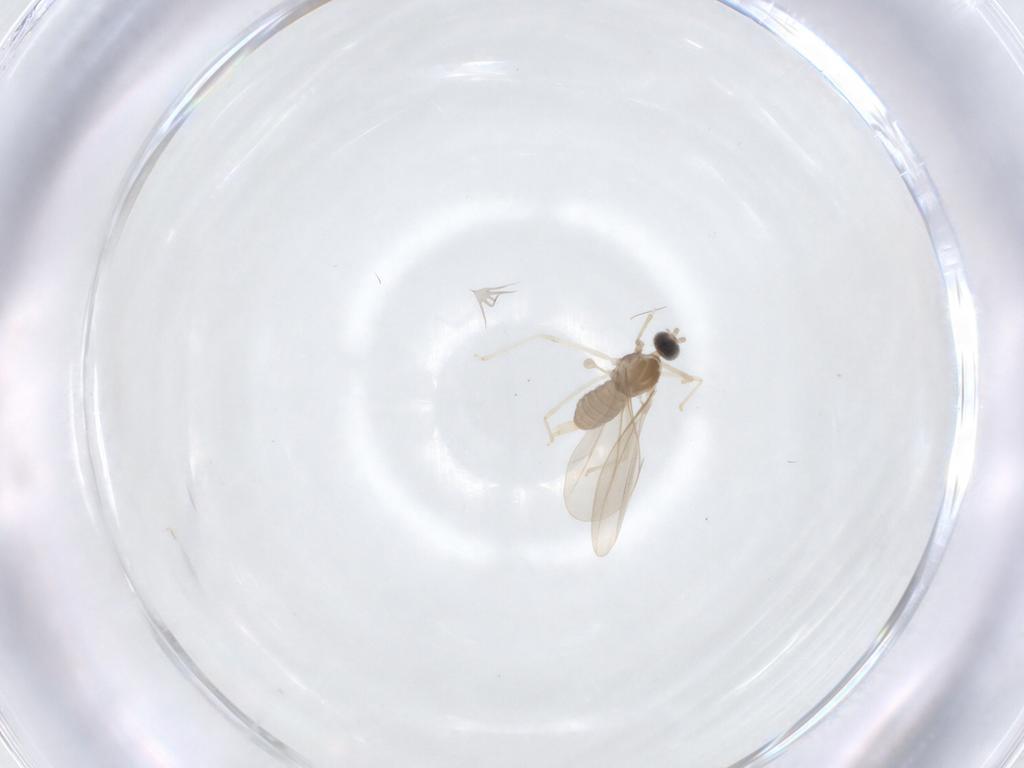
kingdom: Animalia
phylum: Arthropoda
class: Insecta
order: Diptera
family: Cecidomyiidae
